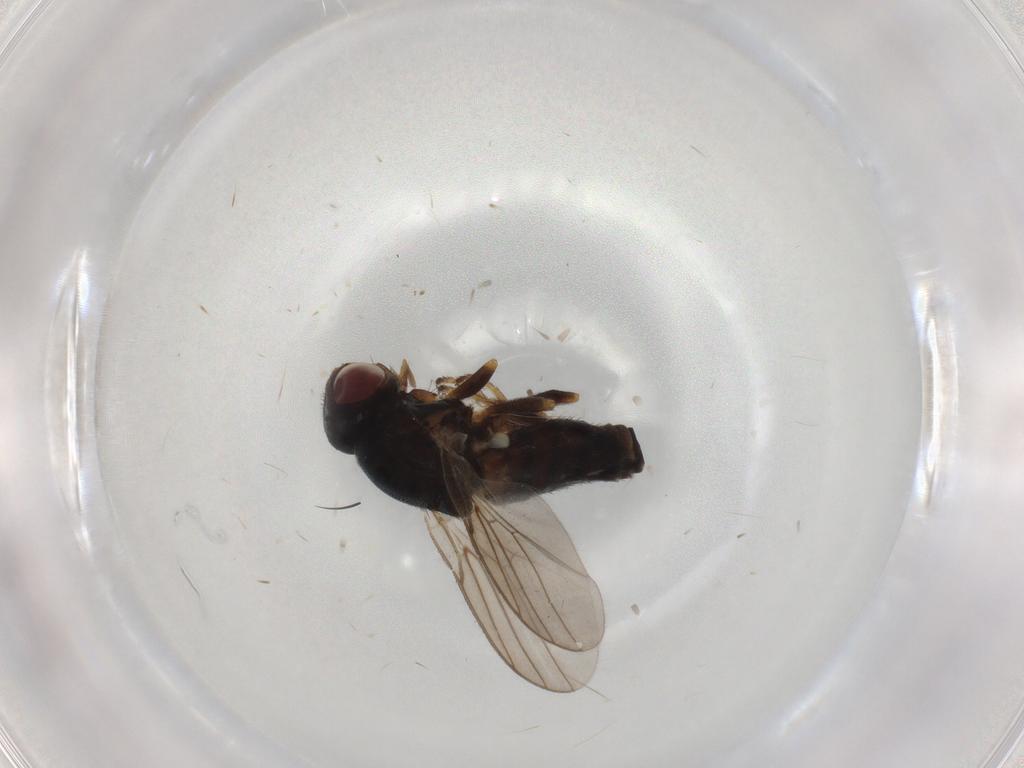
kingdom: Animalia
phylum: Arthropoda
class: Insecta
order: Diptera
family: Chloropidae
